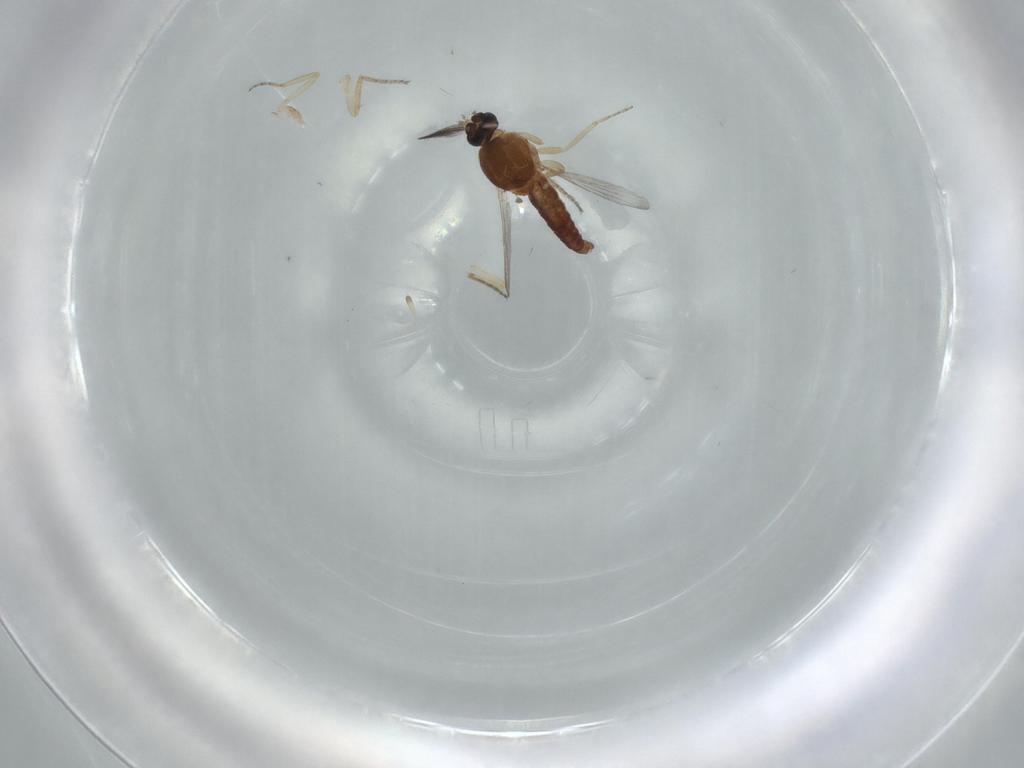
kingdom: Animalia
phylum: Arthropoda
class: Insecta
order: Diptera
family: Ceratopogonidae
